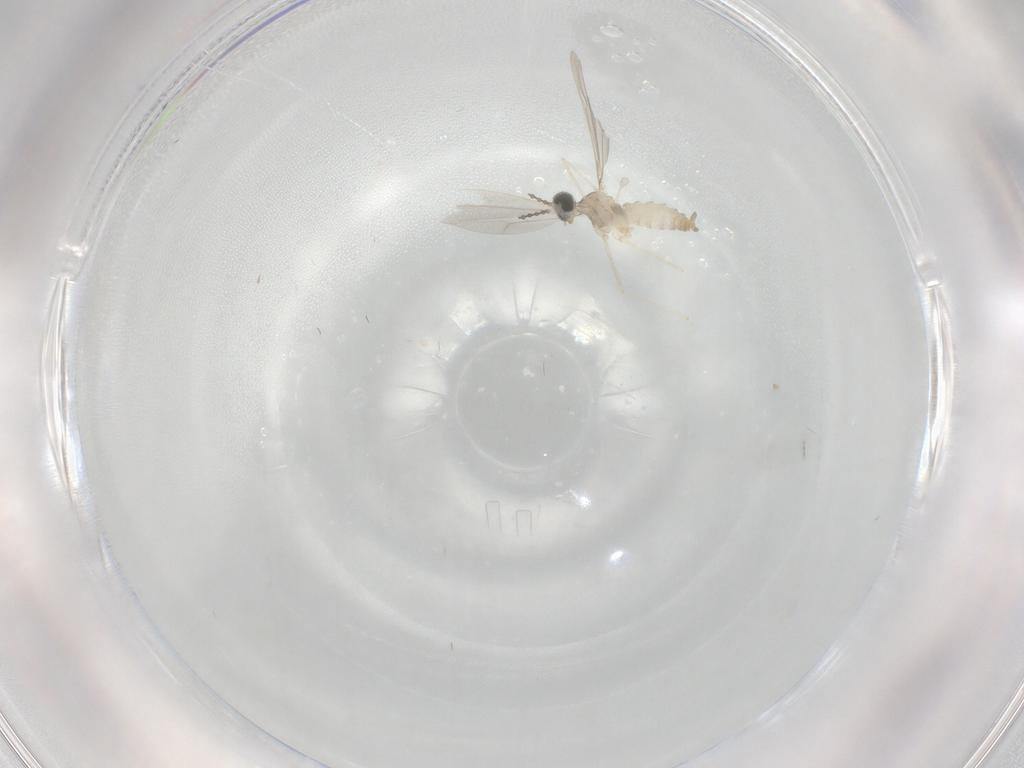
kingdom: Animalia
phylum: Arthropoda
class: Insecta
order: Diptera
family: Cecidomyiidae
